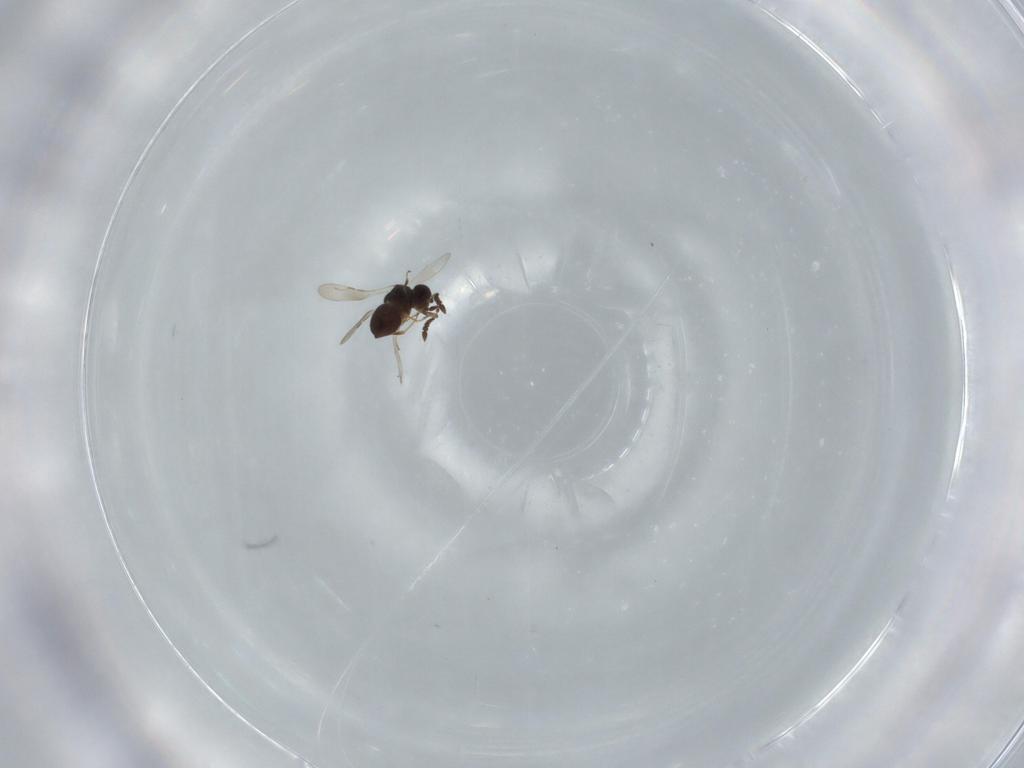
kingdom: Animalia
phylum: Arthropoda
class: Insecta
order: Hymenoptera
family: Ceraphronidae
